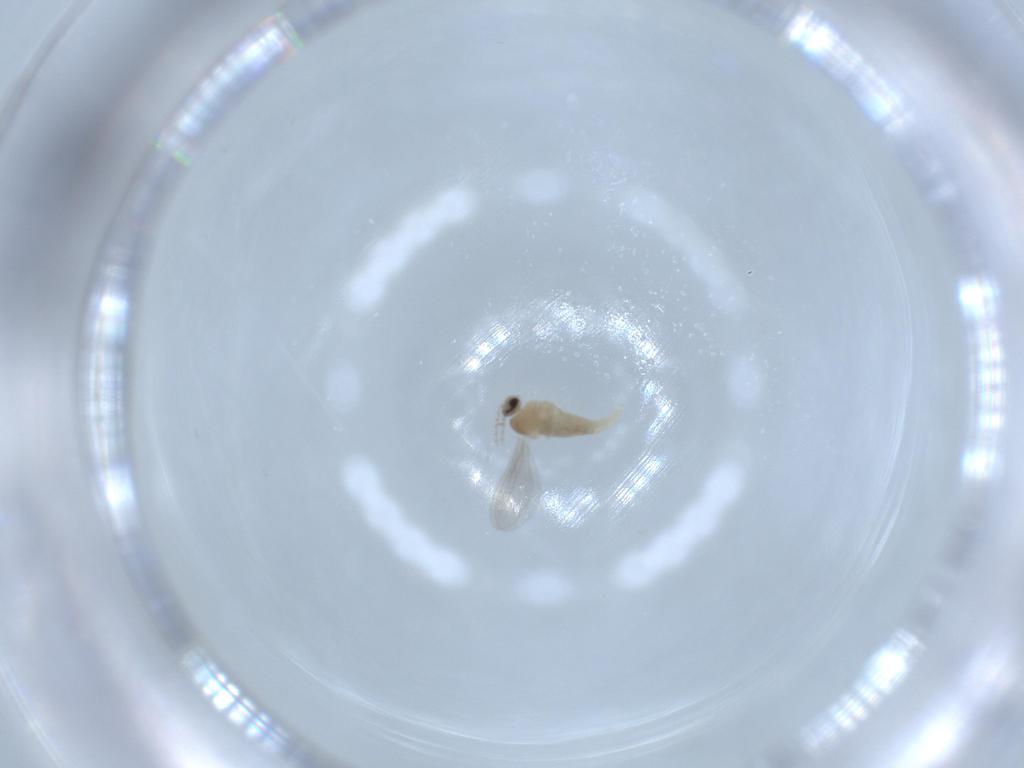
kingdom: Animalia
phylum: Arthropoda
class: Insecta
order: Diptera
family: Cecidomyiidae
